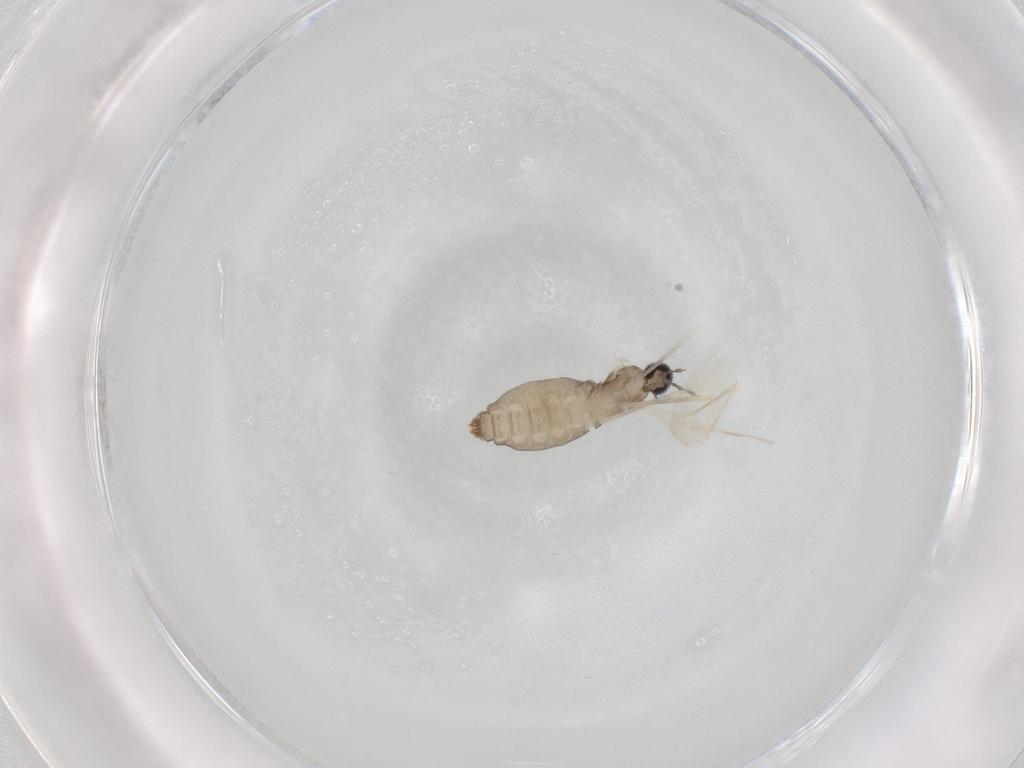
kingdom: Animalia
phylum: Arthropoda
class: Insecta
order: Diptera
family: Cecidomyiidae
